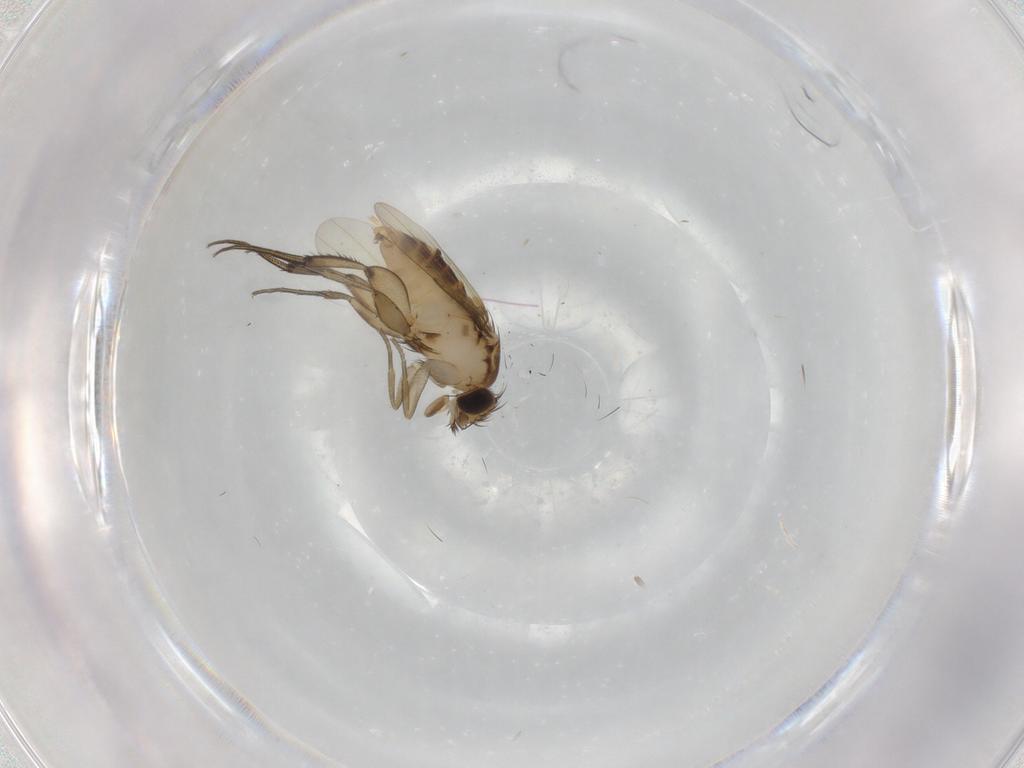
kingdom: Animalia
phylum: Arthropoda
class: Insecta
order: Diptera
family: Phoridae
